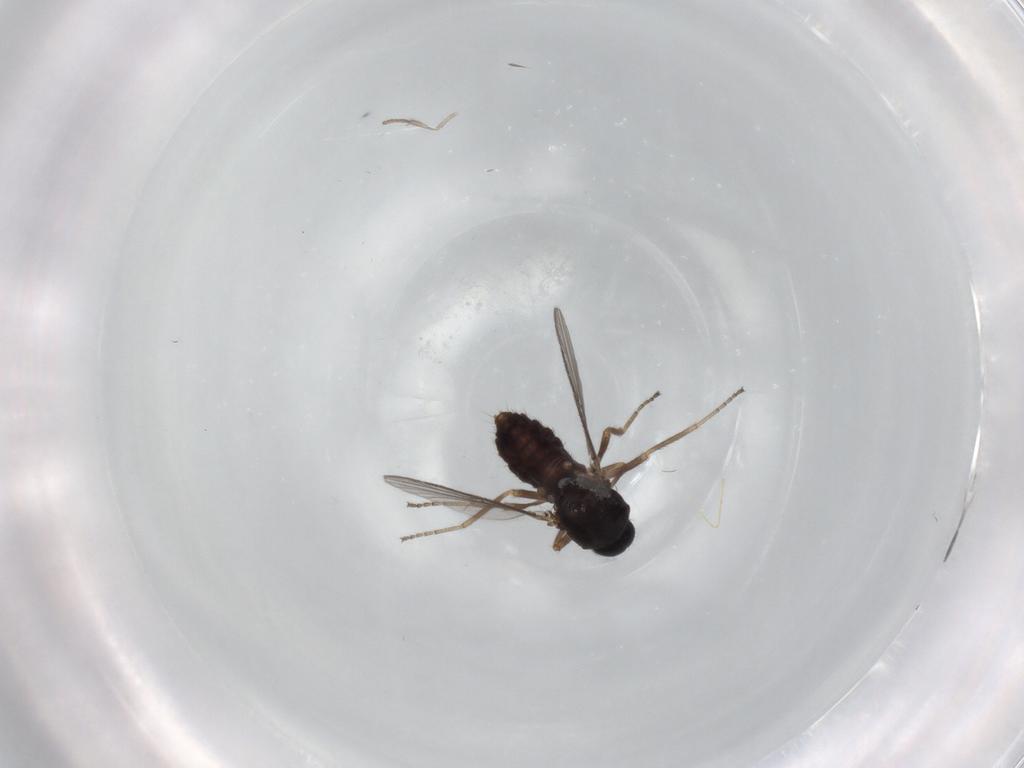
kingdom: Animalia
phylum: Arthropoda
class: Insecta
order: Diptera
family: Ceratopogonidae
